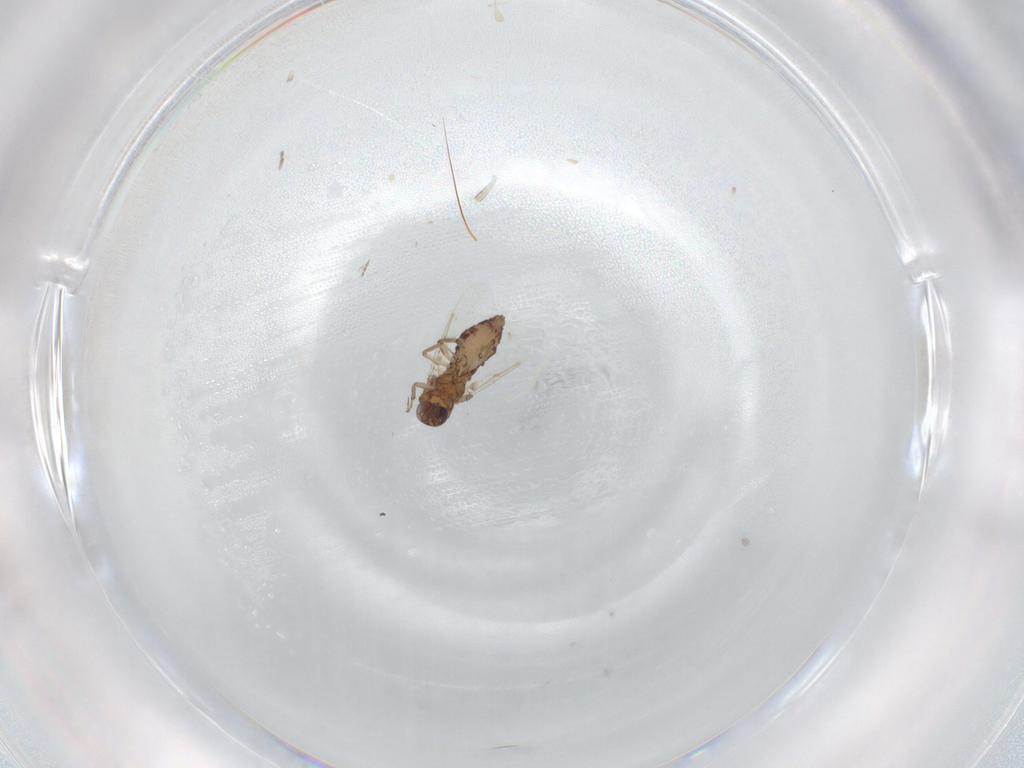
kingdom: Animalia
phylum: Arthropoda
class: Insecta
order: Diptera
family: Ceratopogonidae
